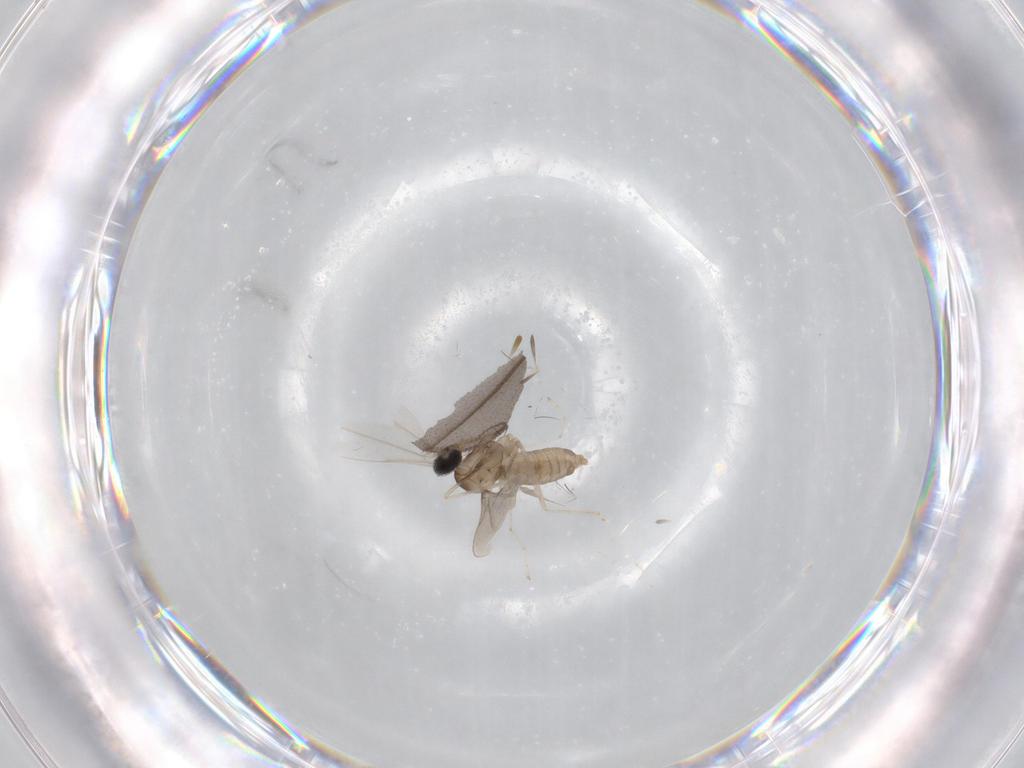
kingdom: Animalia
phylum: Arthropoda
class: Insecta
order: Diptera
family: Cecidomyiidae
